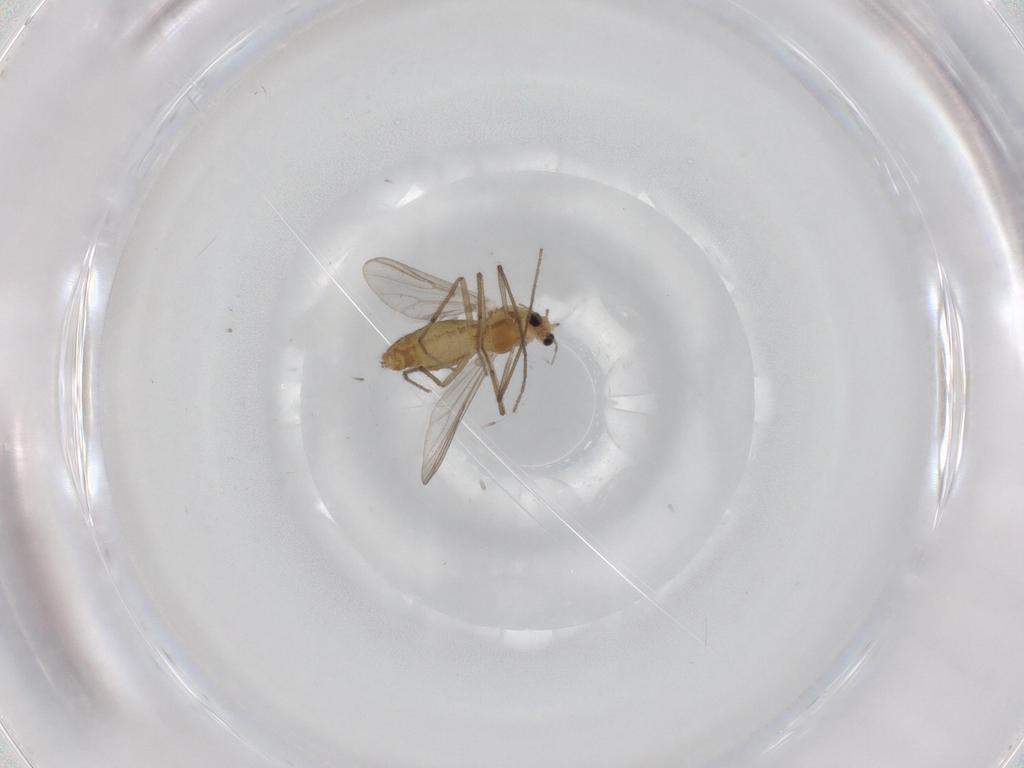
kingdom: Animalia
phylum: Arthropoda
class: Insecta
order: Diptera
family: Chironomidae
